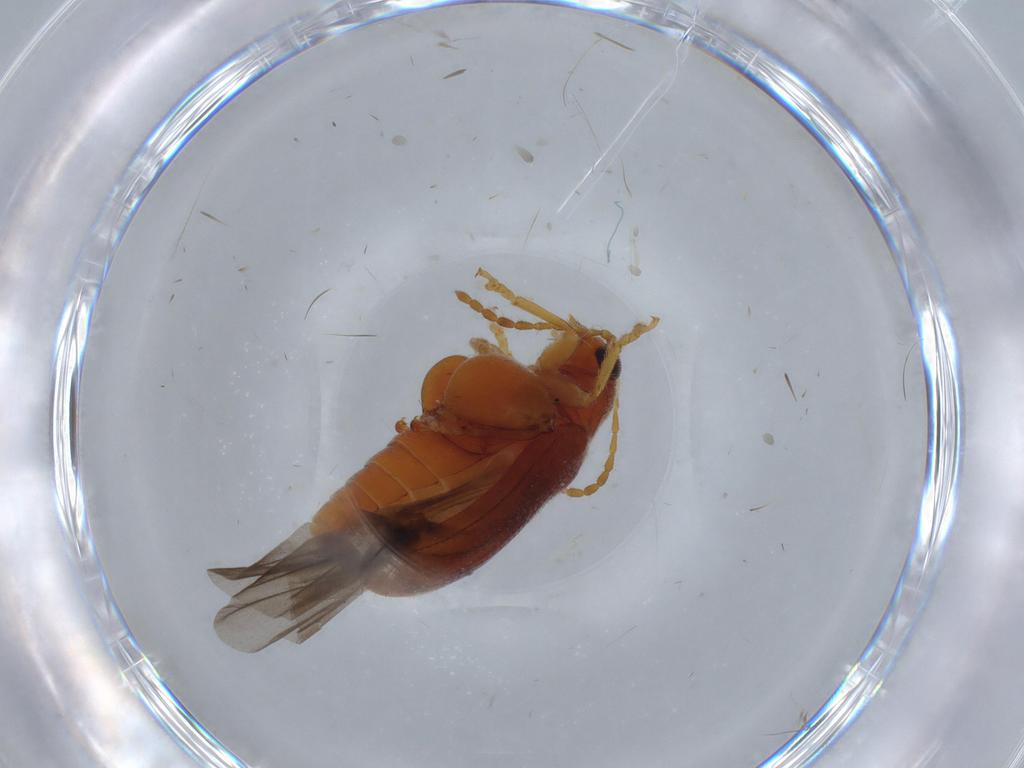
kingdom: Animalia
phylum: Arthropoda
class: Insecta
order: Coleoptera
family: Chrysomelidae
